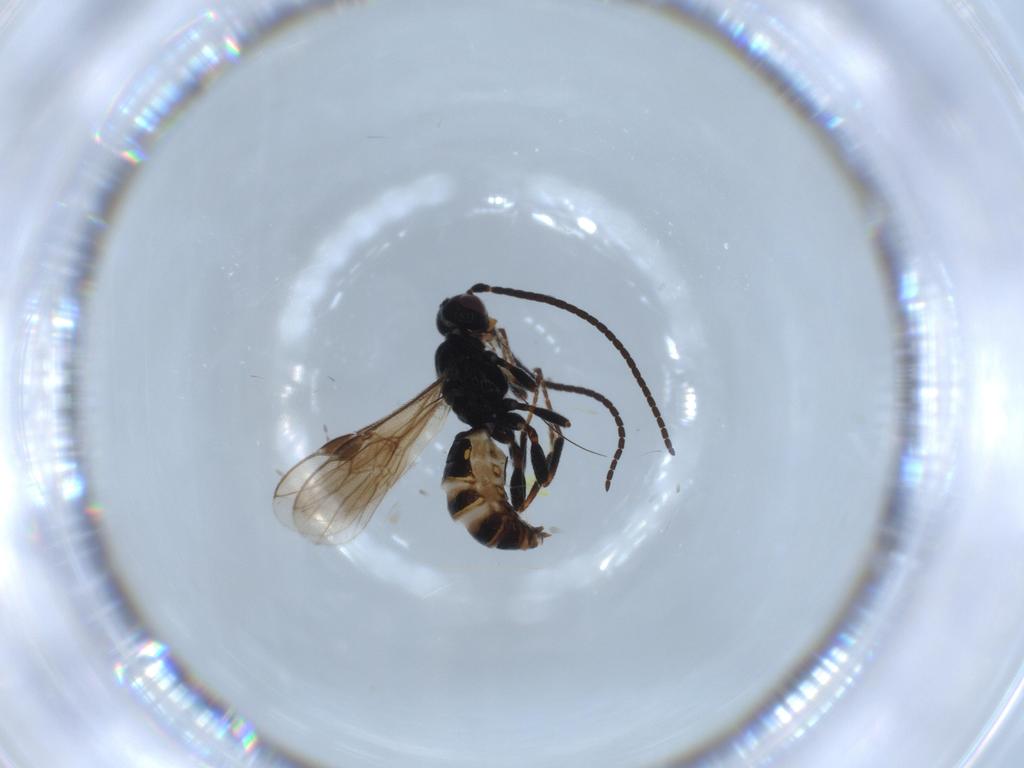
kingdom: Animalia
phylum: Arthropoda
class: Insecta
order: Hymenoptera
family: Braconidae
